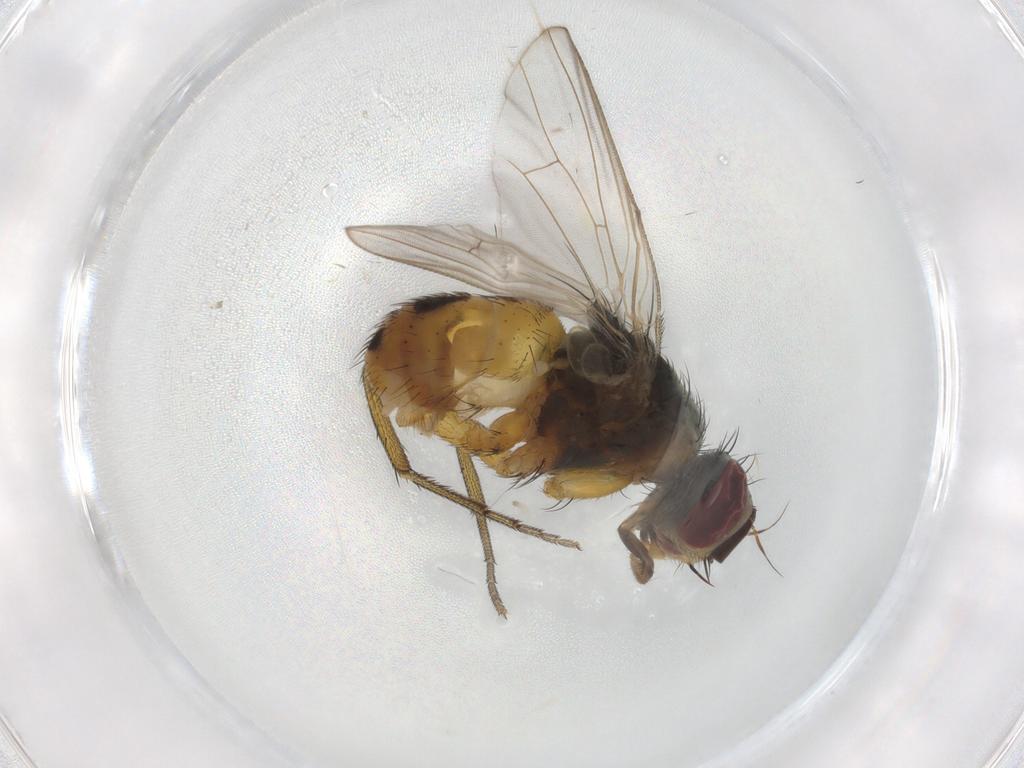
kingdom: Animalia
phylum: Arthropoda
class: Insecta
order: Diptera
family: Muscidae
